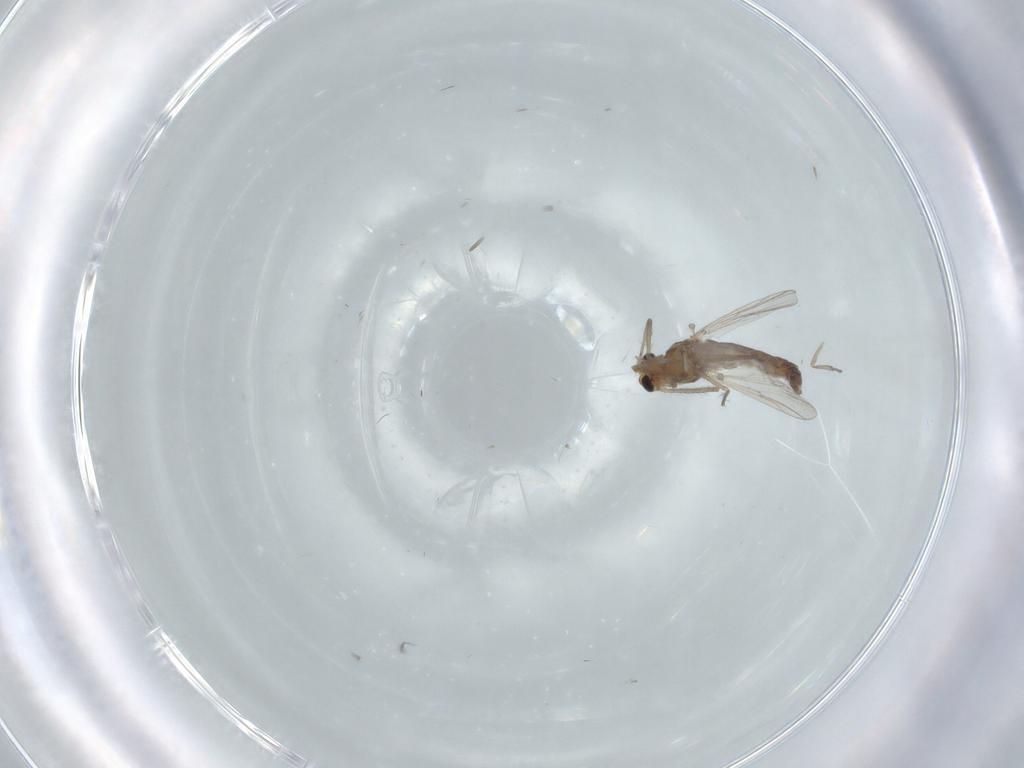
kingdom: Animalia
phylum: Arthropoda
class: Insecta
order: Diptera
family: Chironomidae
